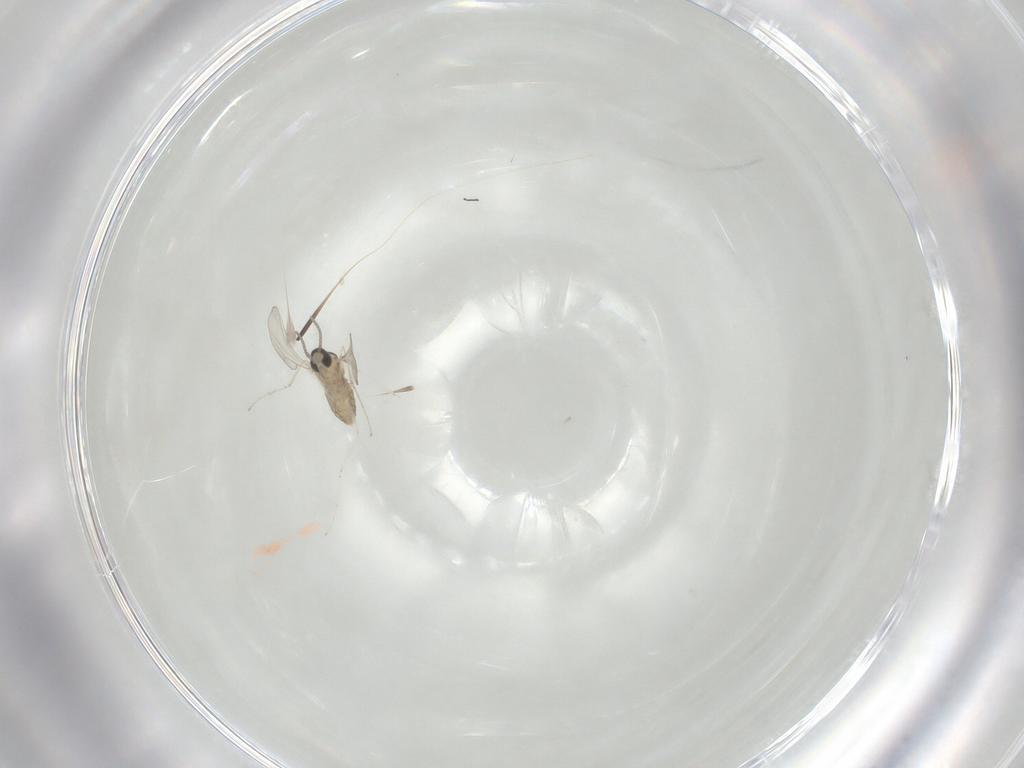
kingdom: Animalia
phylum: Arthropoda
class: Insecta
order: Diptera
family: Cecidomyiidae
